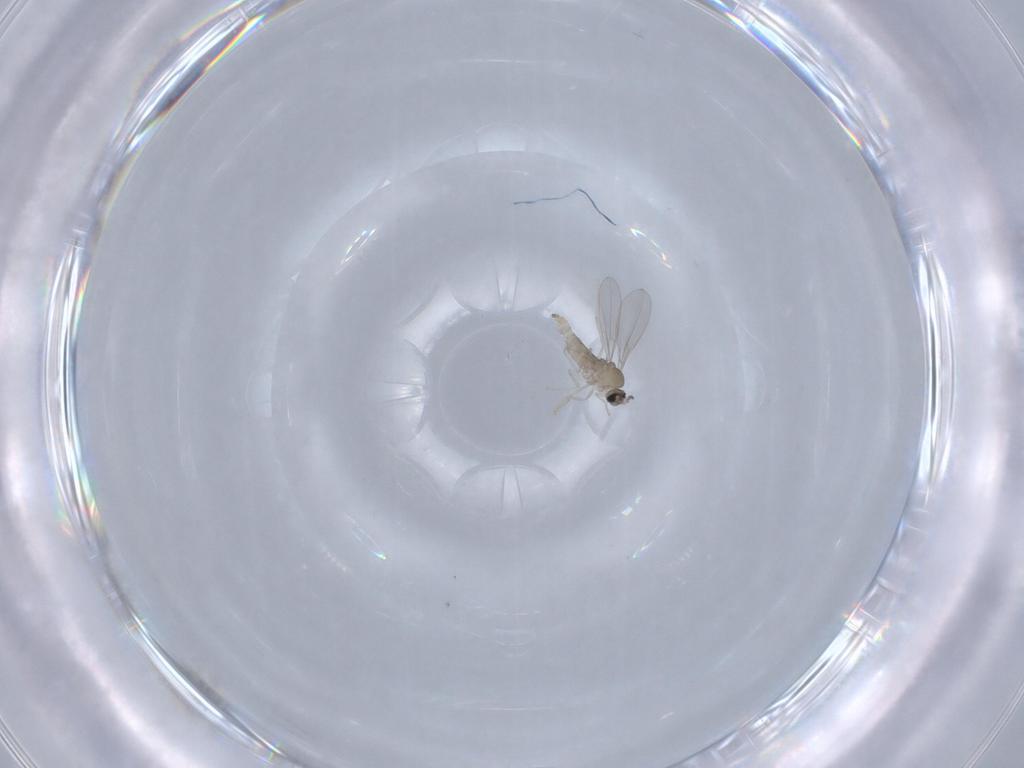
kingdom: Animalia
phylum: Arthropoda
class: Insecta
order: Diptera
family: Cecidomyiidae
